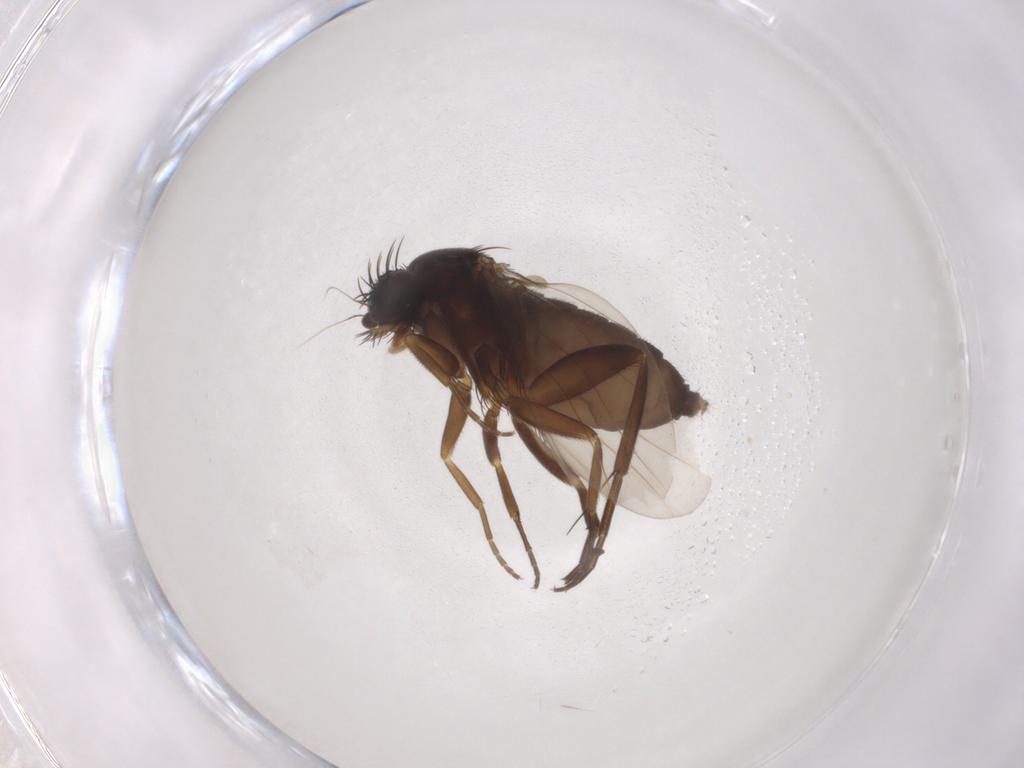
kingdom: Animalia
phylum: Arthropoda
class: Insecta
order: Diptera
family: Phoridae
